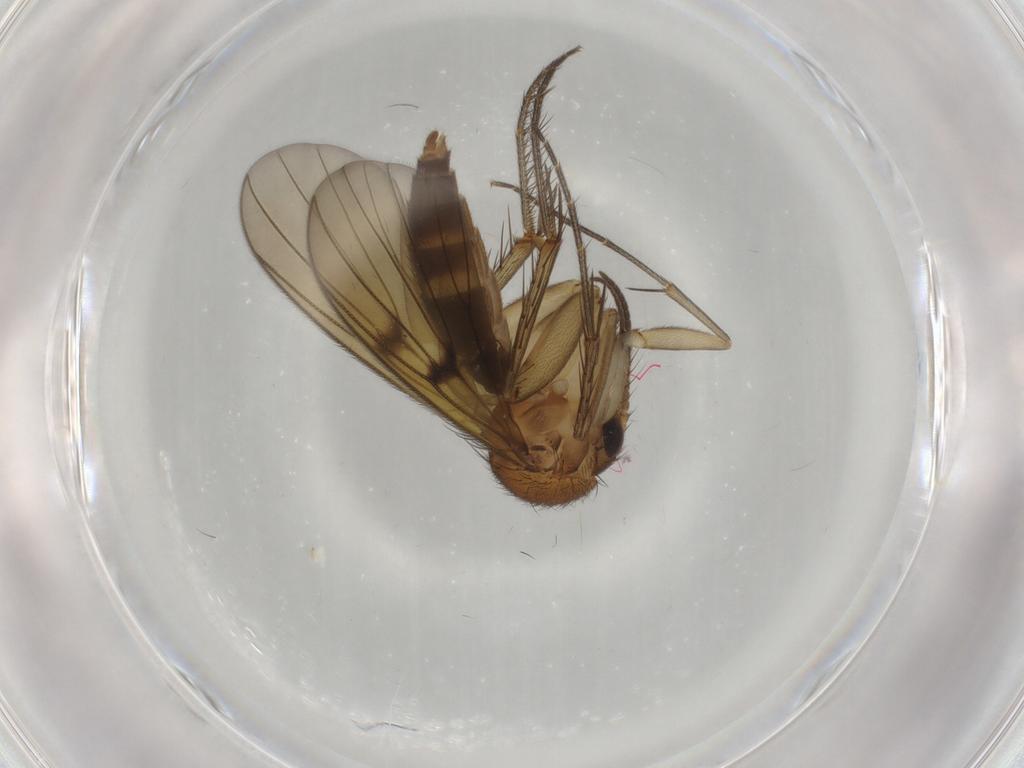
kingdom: Animalia
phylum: Arthropoda
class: Insecta
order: Diptera
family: Mycetophilidae
